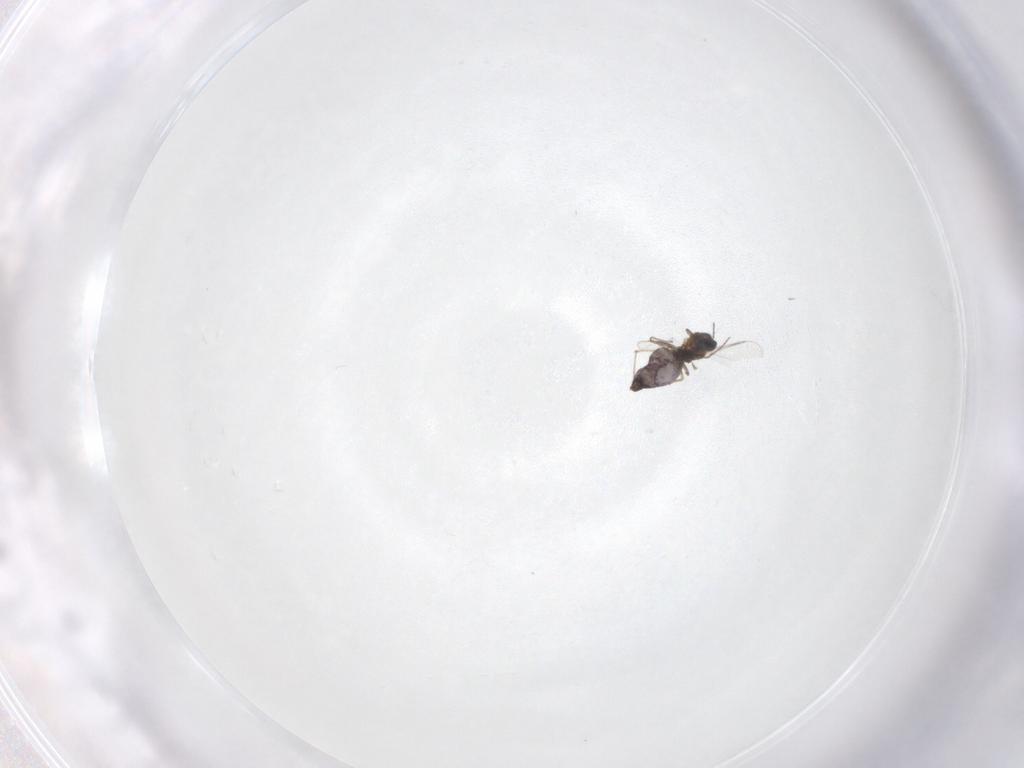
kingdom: Animalia
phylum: Arthropoda
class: Insecta
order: Diptera
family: Chironomidae
